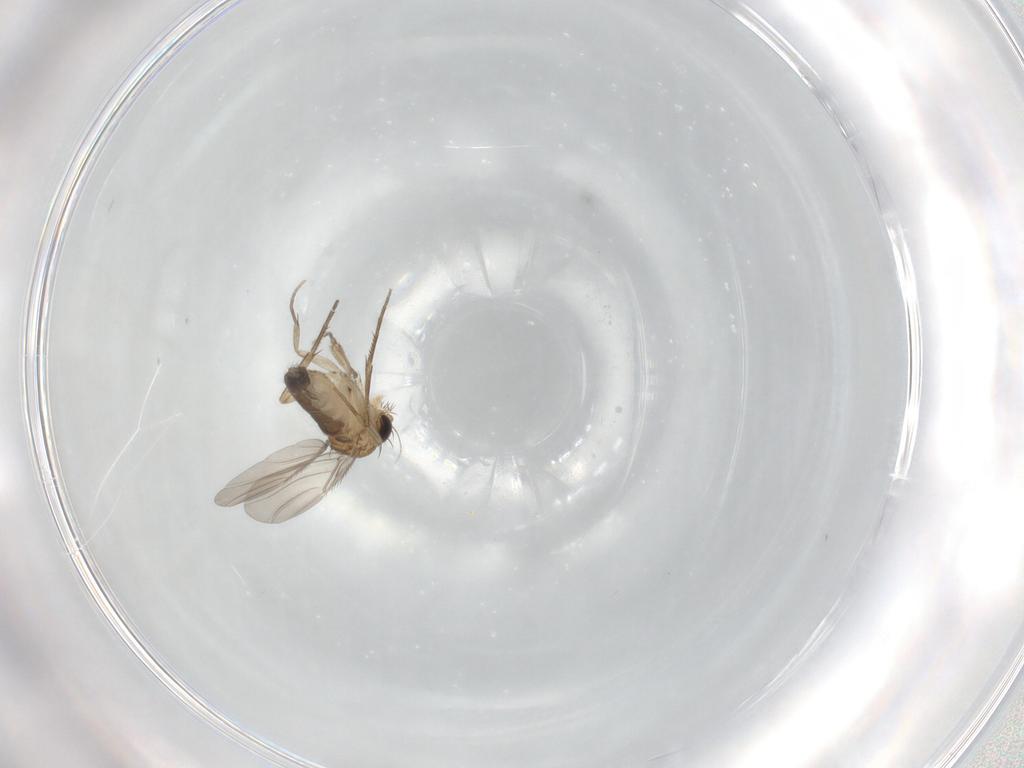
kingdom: Animalia
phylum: Arthropoda
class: Insecta
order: Diptera
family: Phoridae
